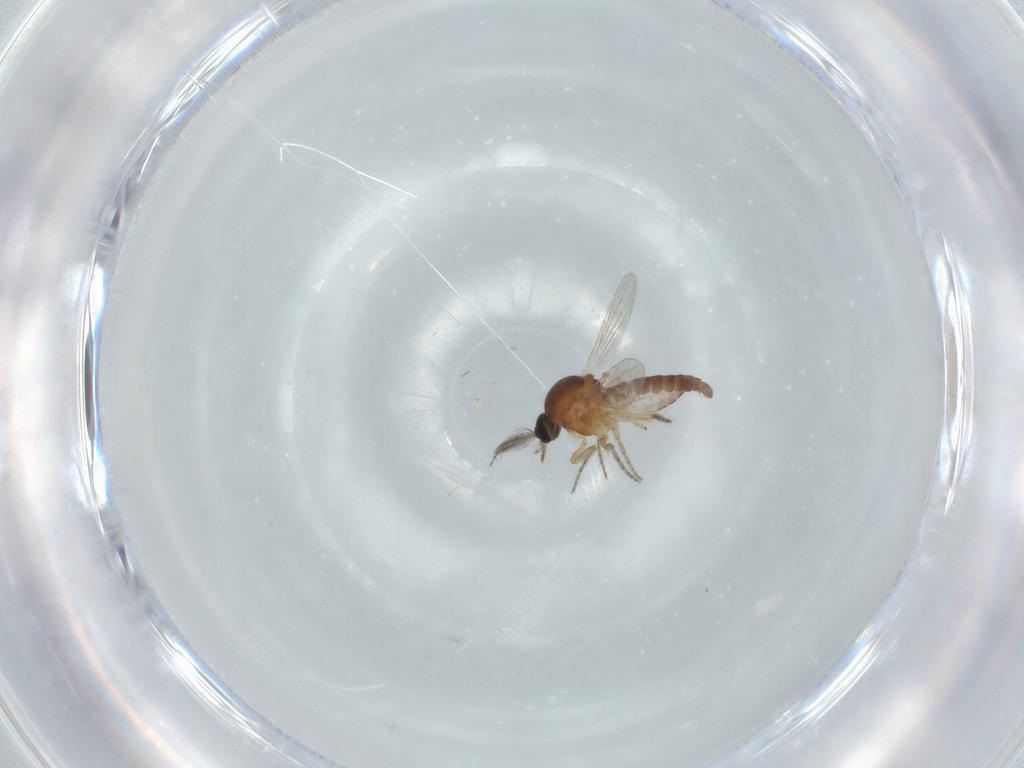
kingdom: Animalia
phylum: Arthropoda
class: Insecta
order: Diptera
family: Ceratopogonidae
